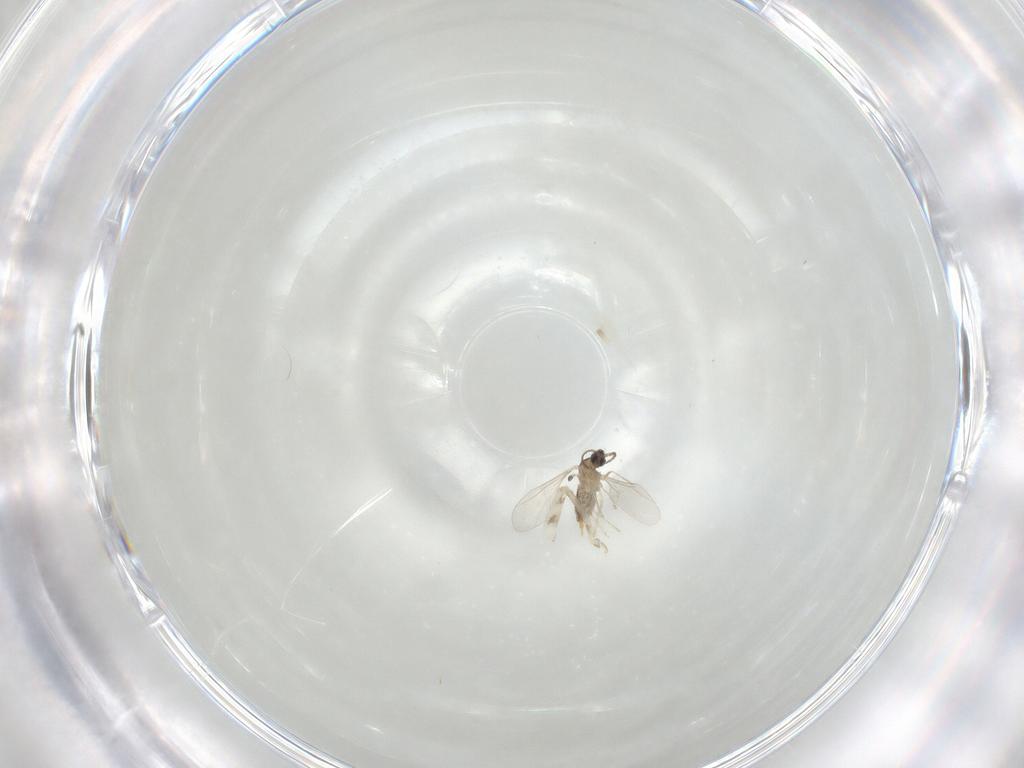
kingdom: Animalia
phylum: Arthropoda
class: Insecta
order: Diptera
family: Cecidomyiidae
